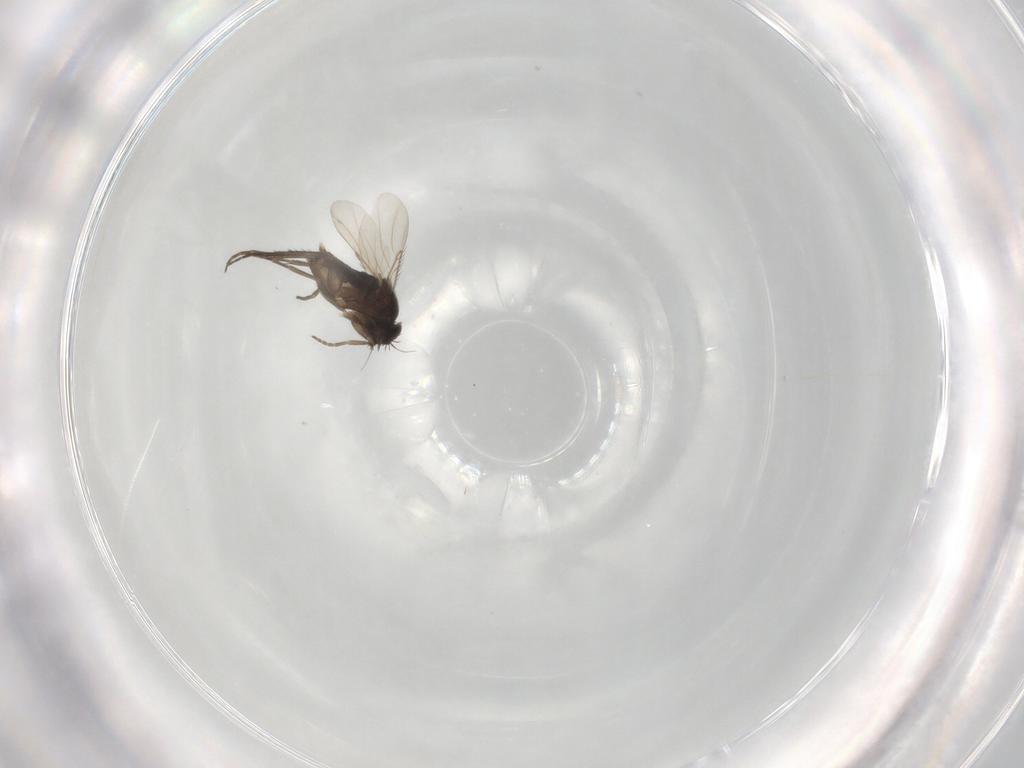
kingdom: Animalia
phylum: Arthropoda
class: Insecta
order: Diptera
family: Phoridae
